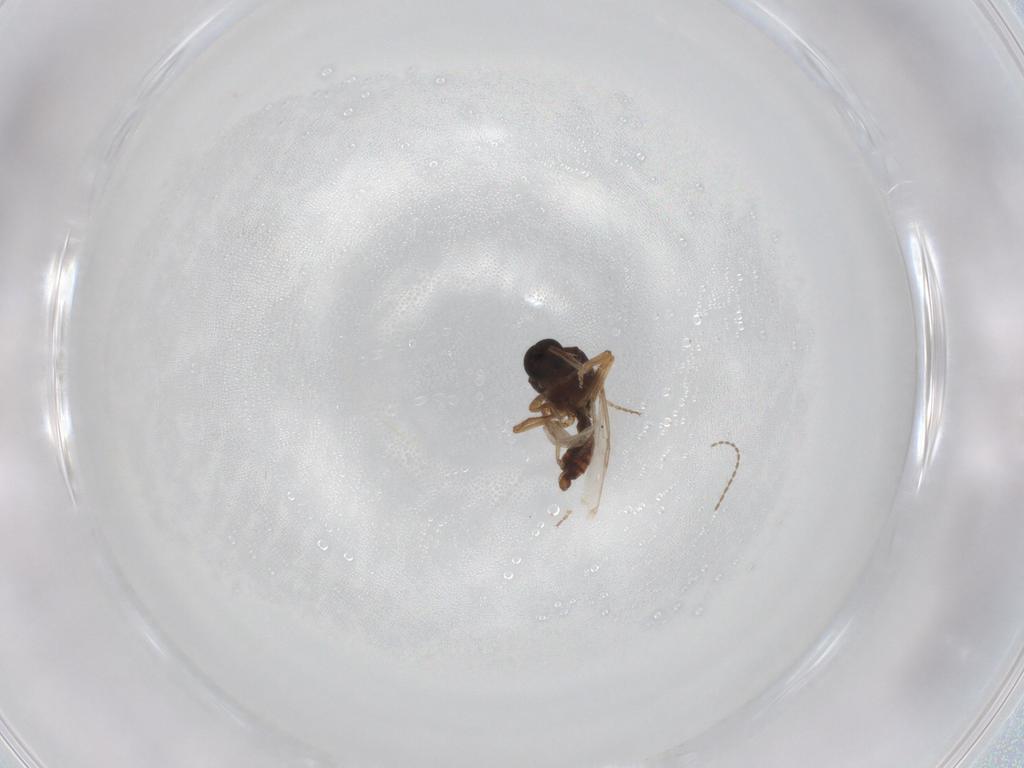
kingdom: Animalia
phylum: Arthropoda
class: Insecta
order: Diptera
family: Ceratopogonidae
